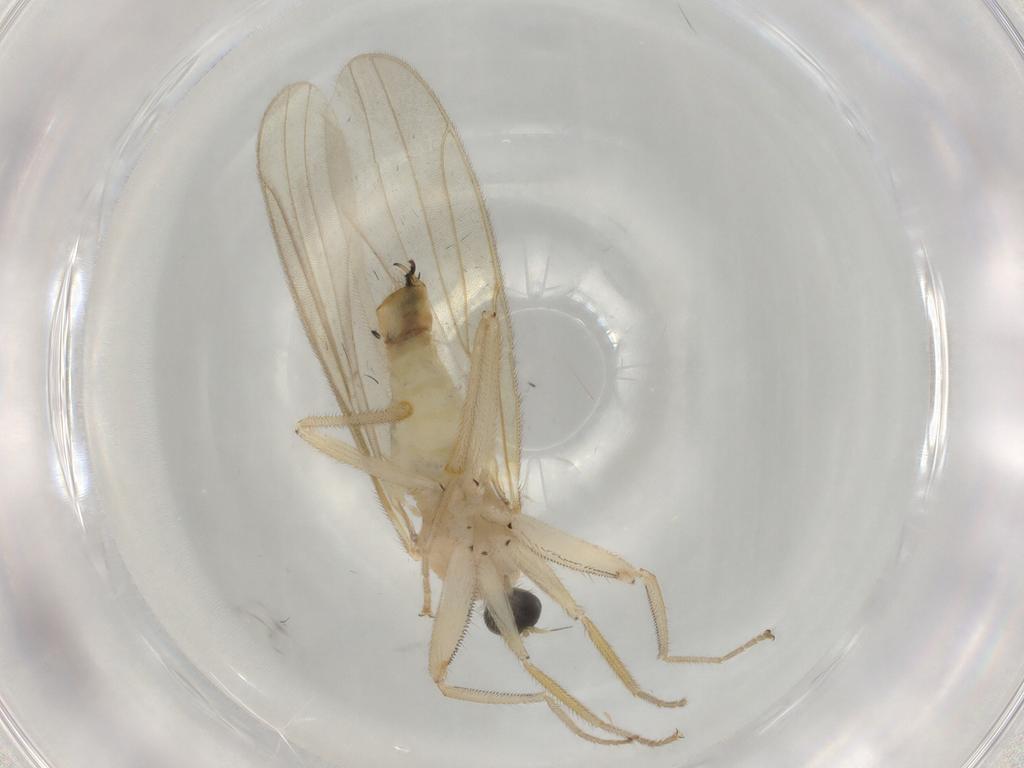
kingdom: Animalia
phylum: Arthropoda
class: Insecta
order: Diptera
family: Hybotidae
